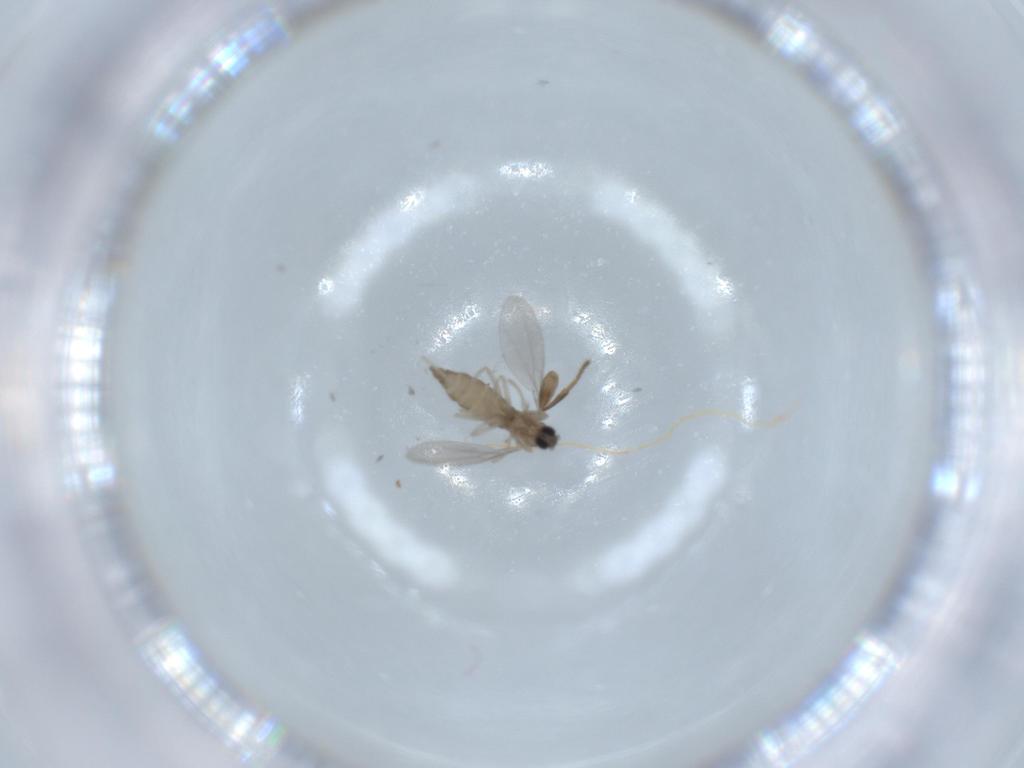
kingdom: Animalia
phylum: Arthropoda
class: Insecta
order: Diptera
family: Sphaeroceridae
